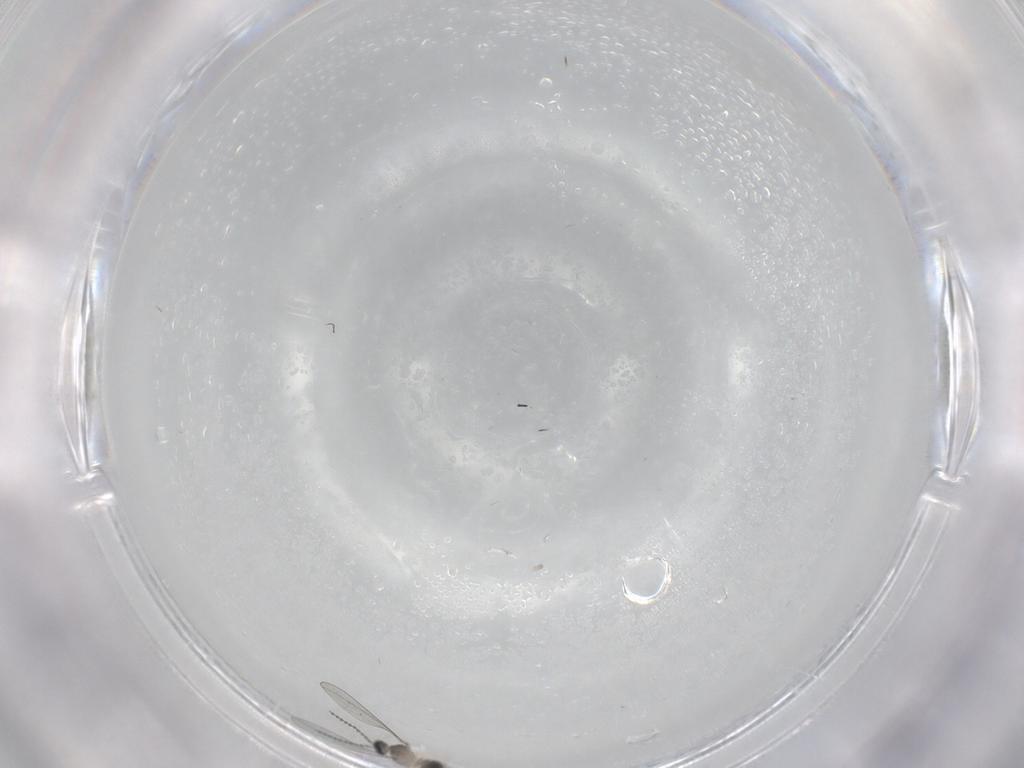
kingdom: Animalia
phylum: Arthropoda
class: Insecta
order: Diptera
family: Cecidomyiidae
